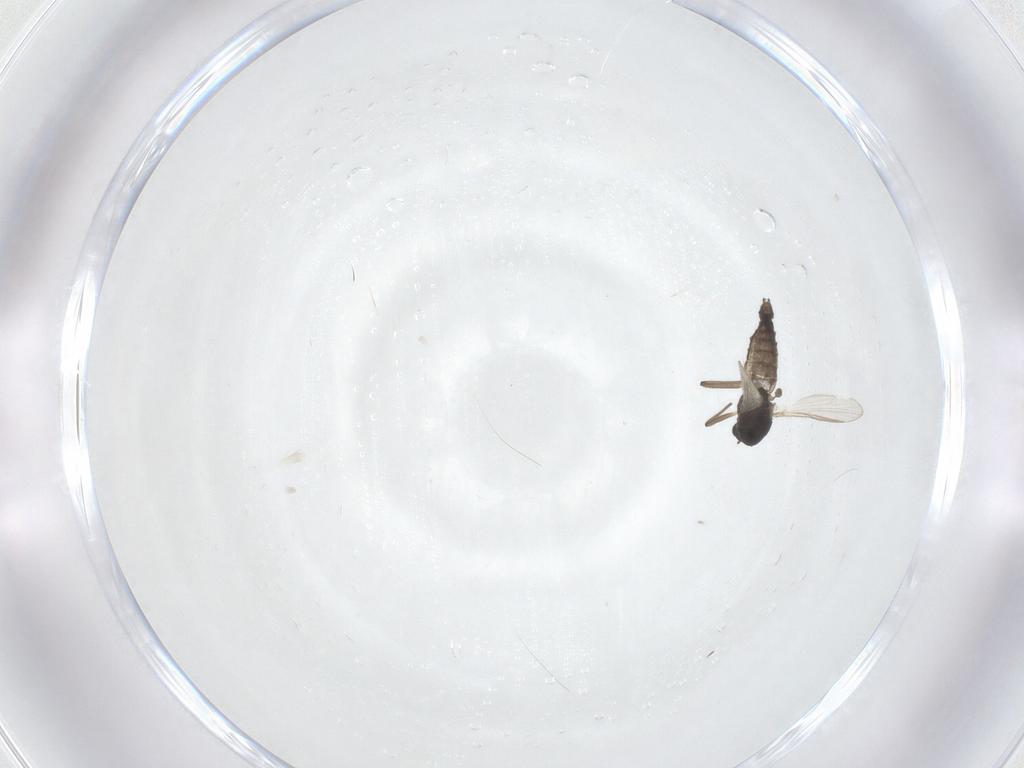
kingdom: Animalia
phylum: Arthropoda
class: Insecta
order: Diptera
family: Chironomidae
